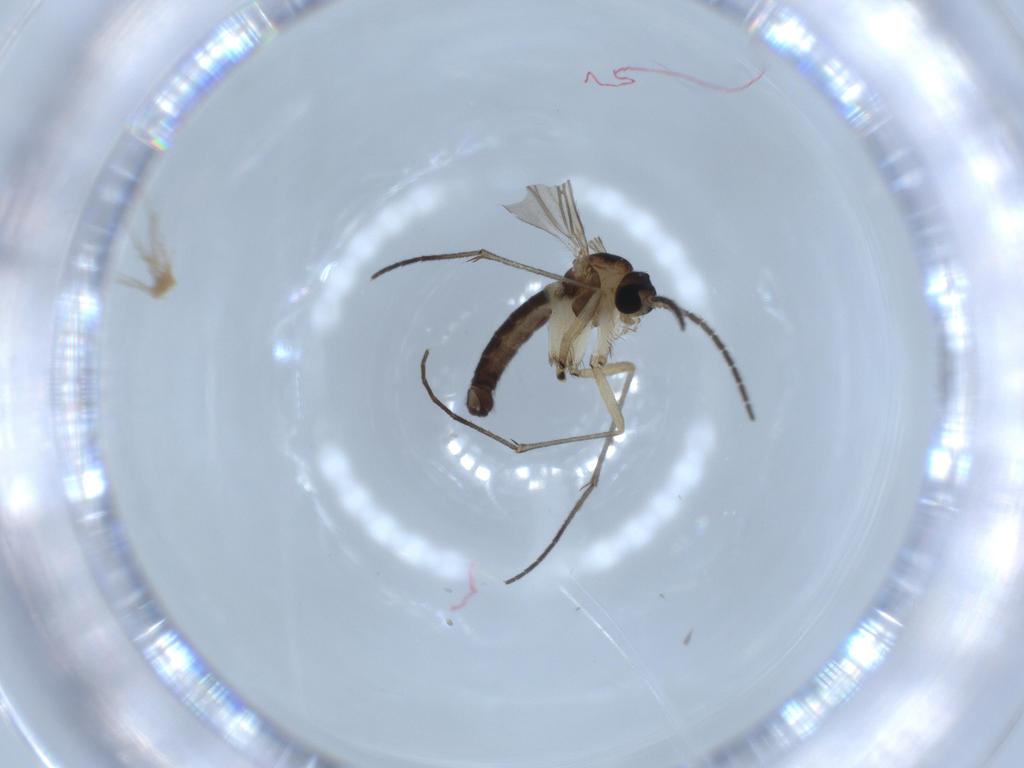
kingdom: Animalia
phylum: Arthropoda
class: Insecta
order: Diptera
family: Sciaridae
